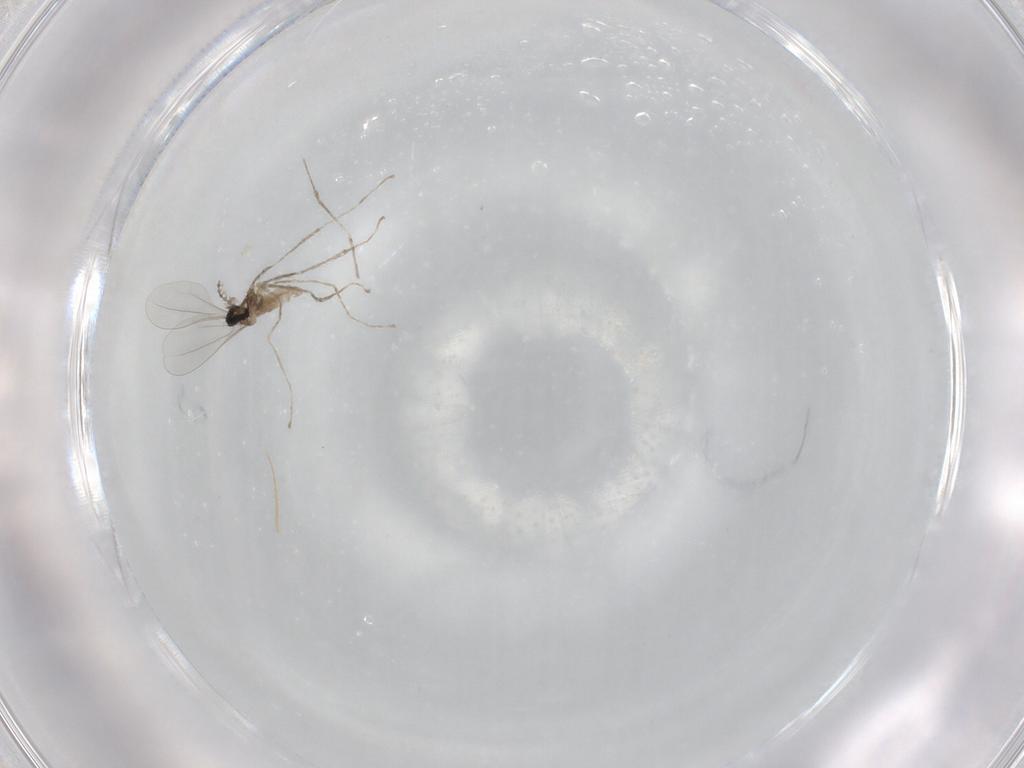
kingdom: Animalia
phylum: Arthropoda
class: Insecta
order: Diptera
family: Cecidomyiidae
